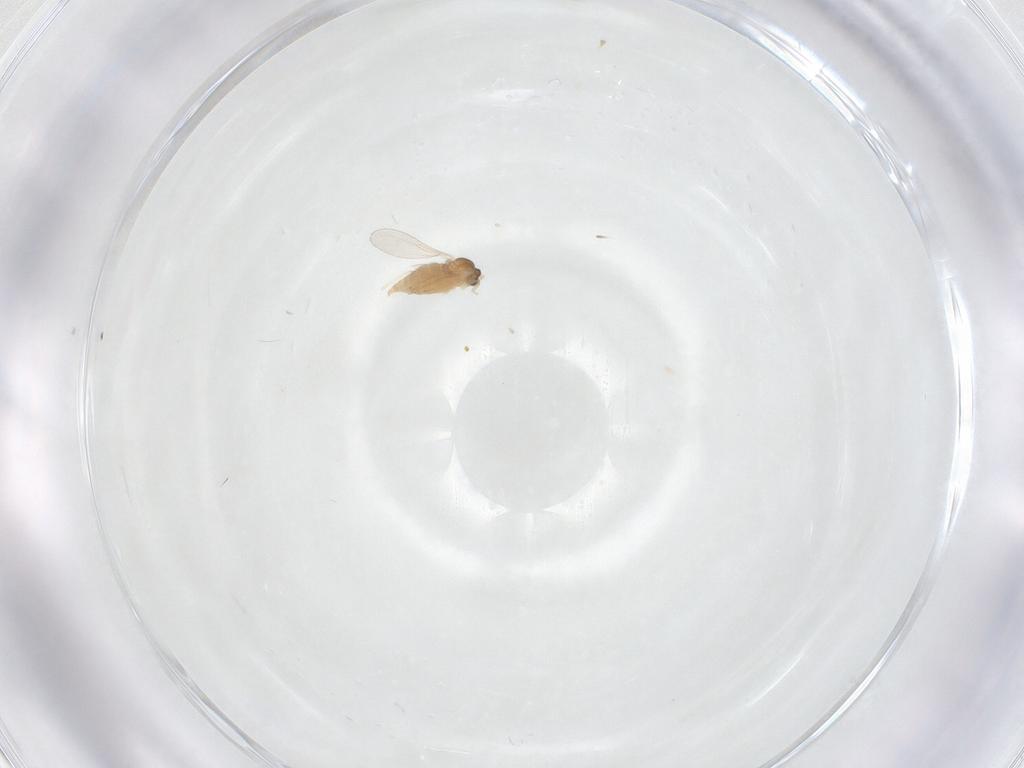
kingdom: Animalia
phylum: Arthropoda
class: Insecta
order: Diptera
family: Cecidomyiidae
